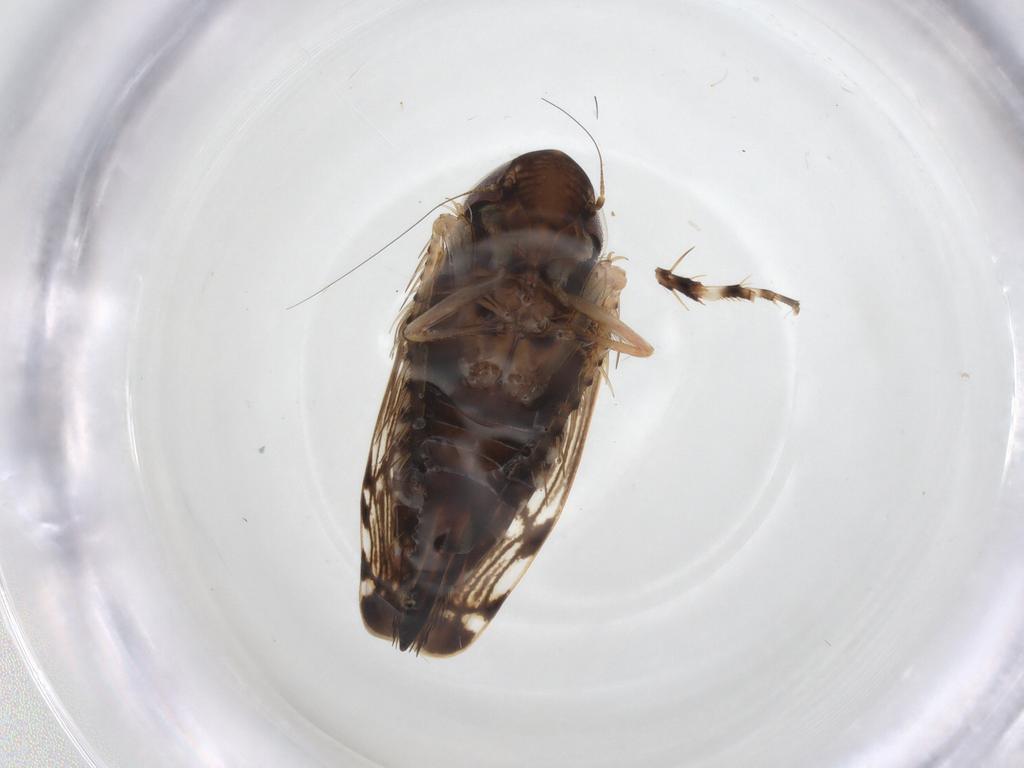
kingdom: Animalia
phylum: Arthropoda
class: Insecta
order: Hemiptera
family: Cicadellidae
